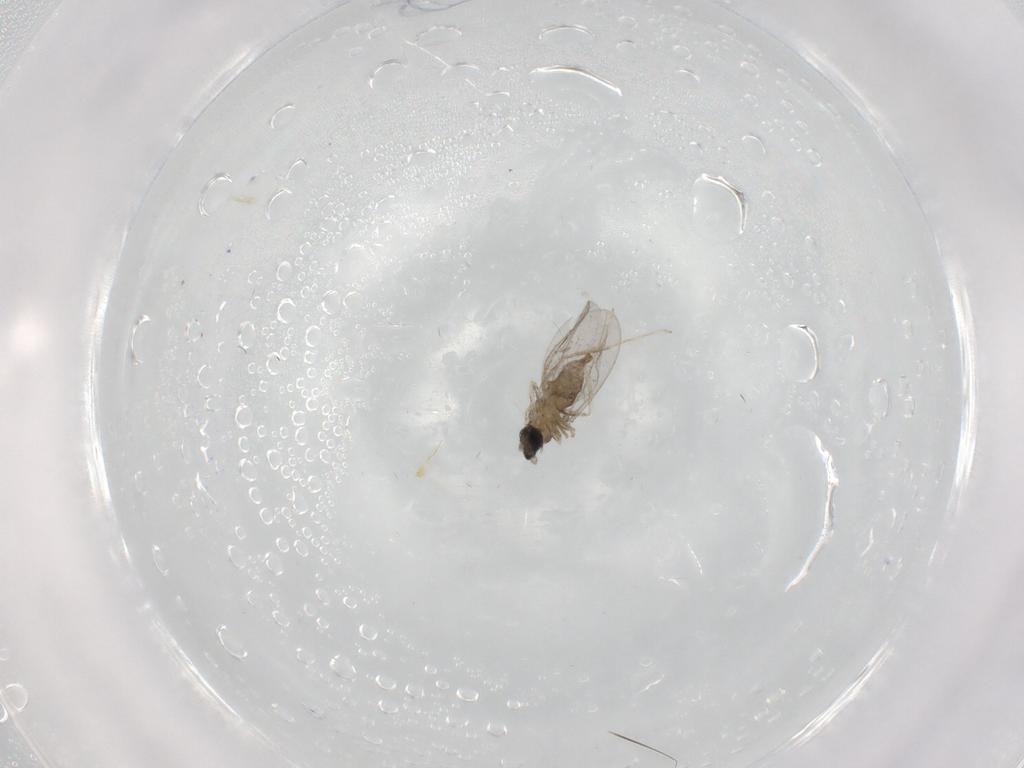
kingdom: Animalia
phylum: Arthropoda
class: Insecta
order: Diptera
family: Cecidomyiidae
